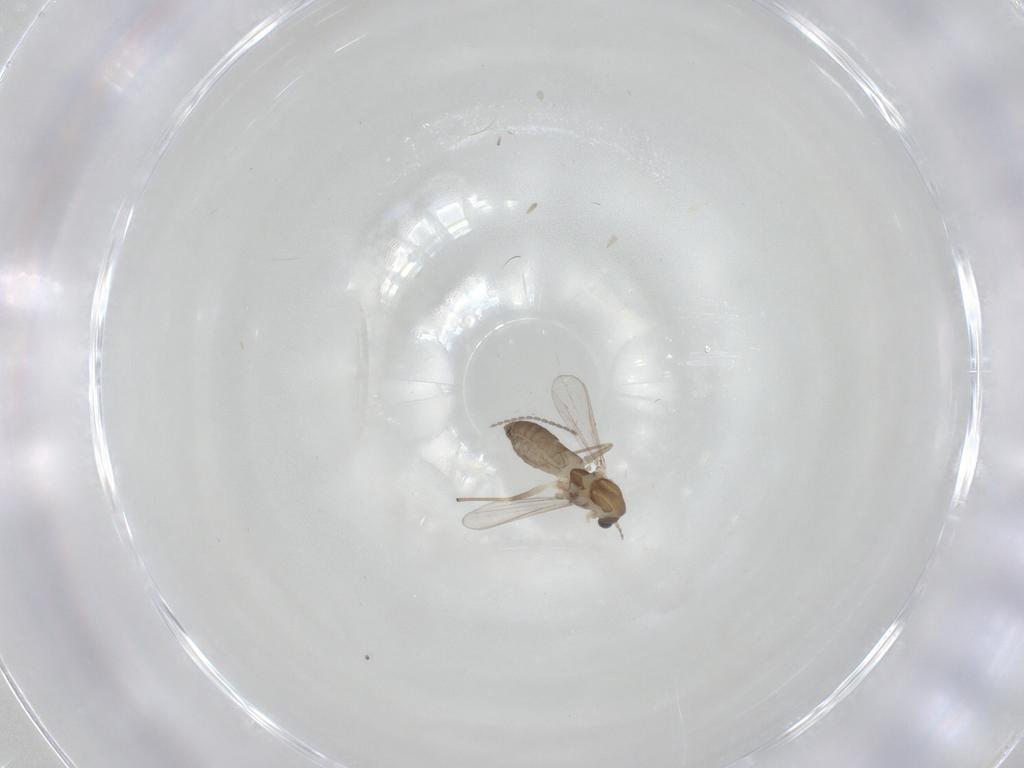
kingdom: Animalia
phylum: Arthropoda
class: Insecta
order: Diptera
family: Chironomidae
